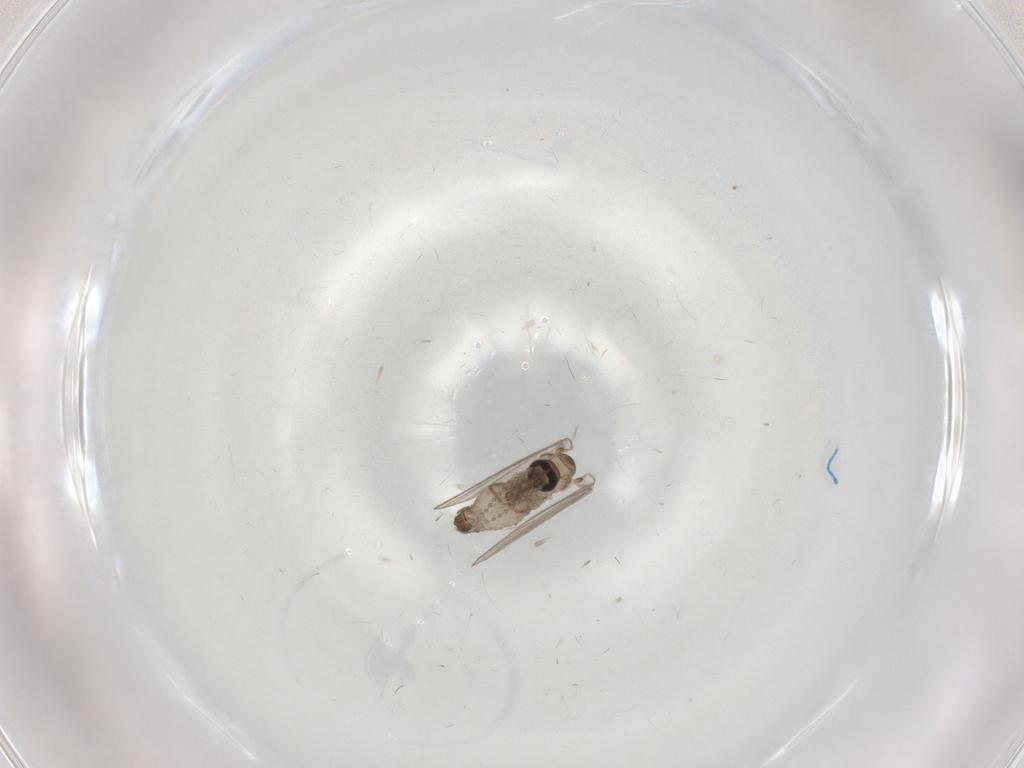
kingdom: Animalia
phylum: Arthropoda
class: Insecta
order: Diptera
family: Psychodidae
